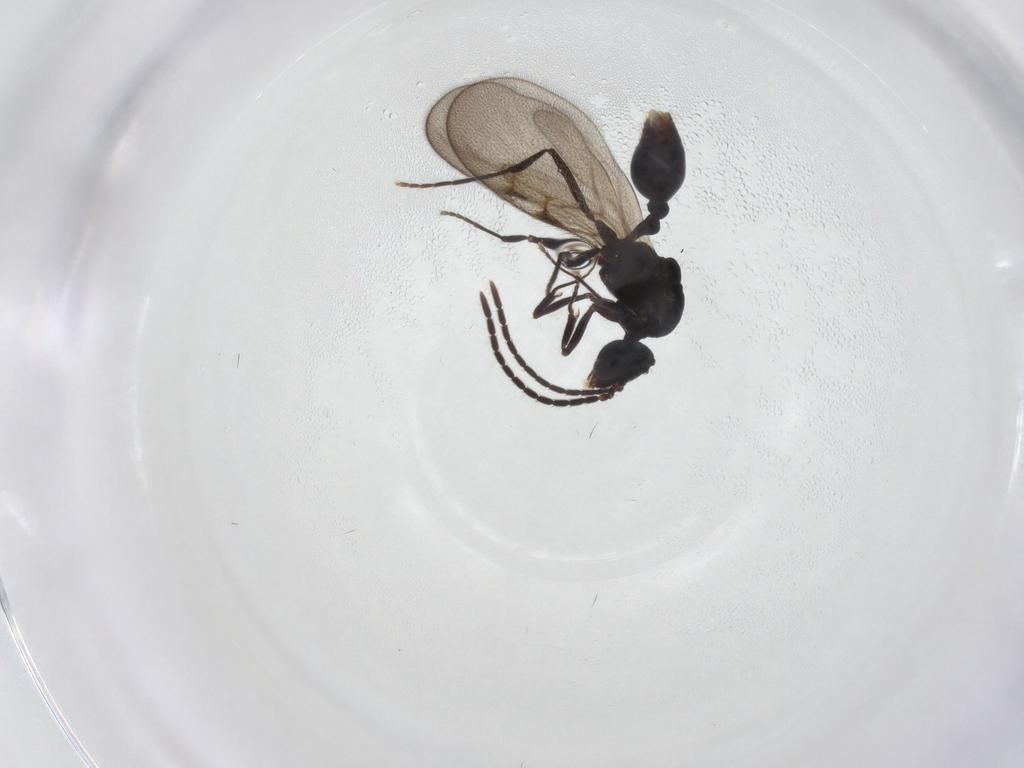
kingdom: Animalia
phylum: Arthropoda
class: Insecta
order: Hymenoptera
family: Formicidae
